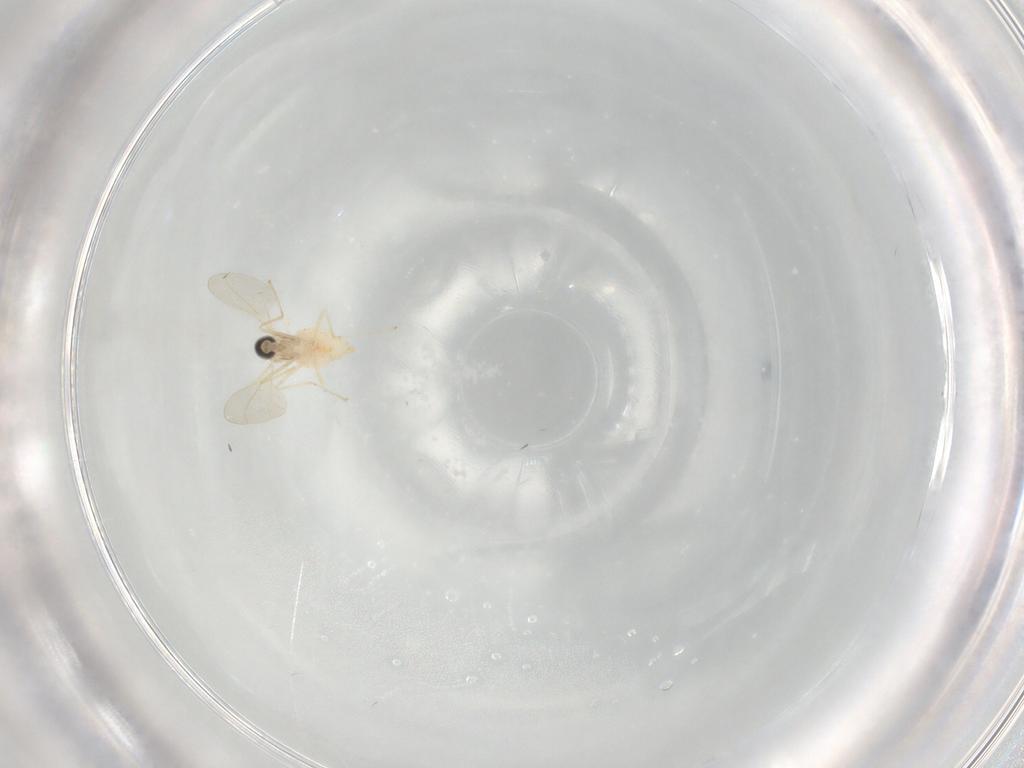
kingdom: Animalia
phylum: Arthropoda
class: Insecta
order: Diptera
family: Cecidomyiidae
